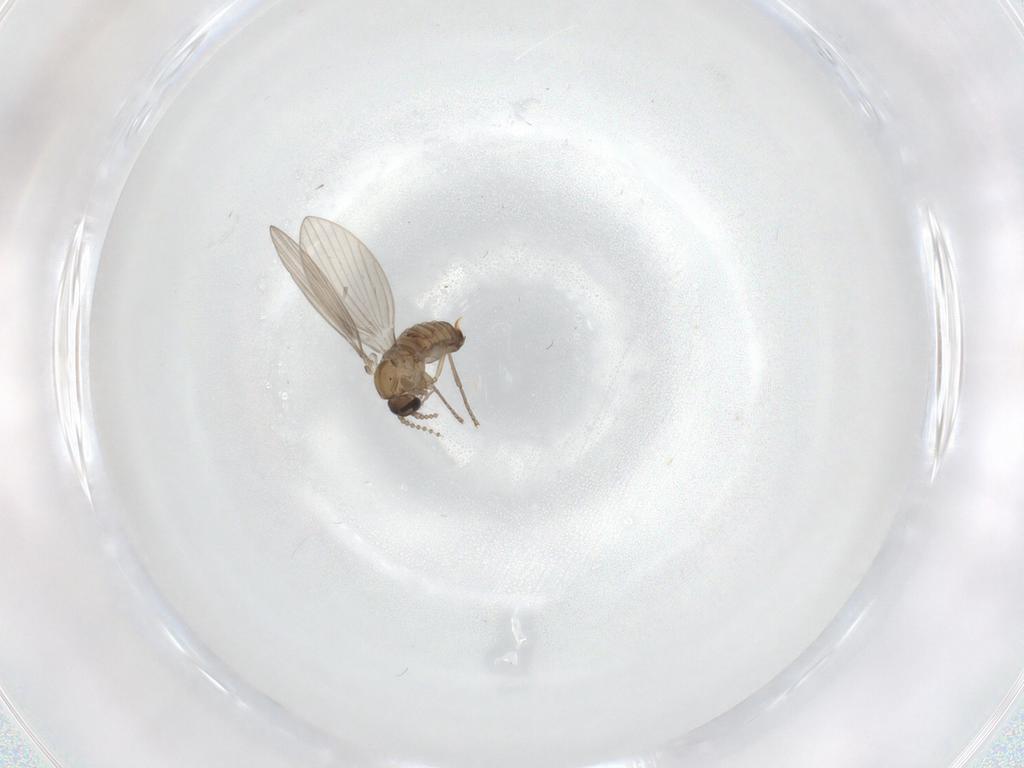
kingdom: Animalia
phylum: Arthropoda
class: Insecta
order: Diptera
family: Psychodidae
